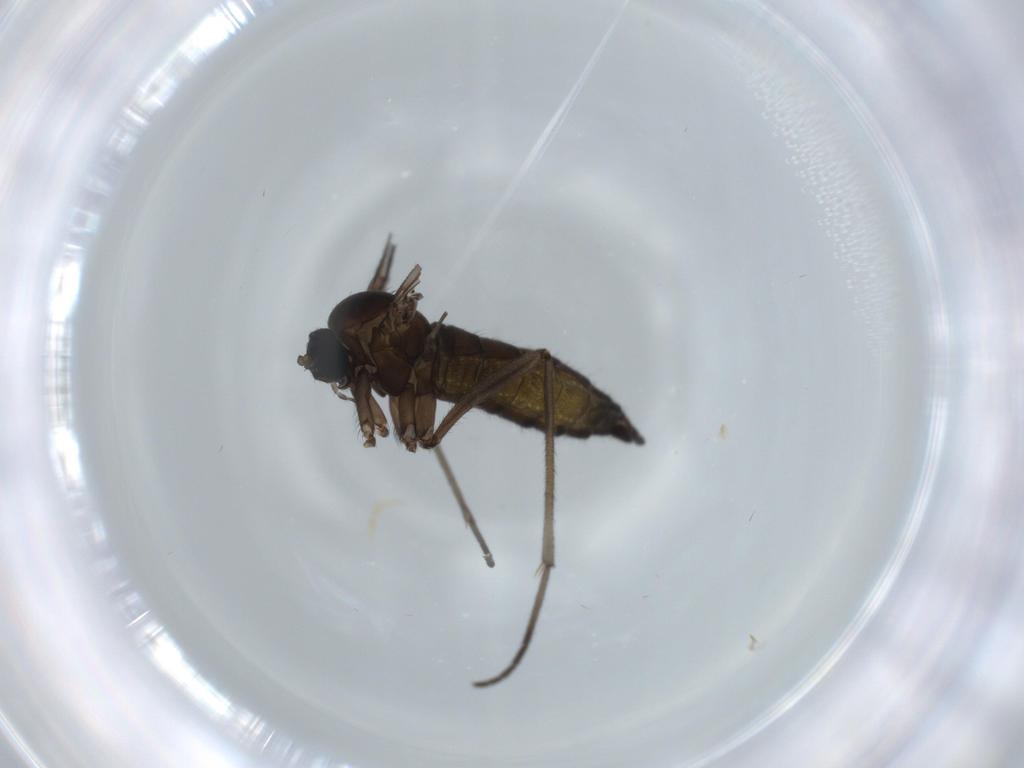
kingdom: Animalia
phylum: Arthropoda
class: Insecta
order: Diptera
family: Sciaridae
